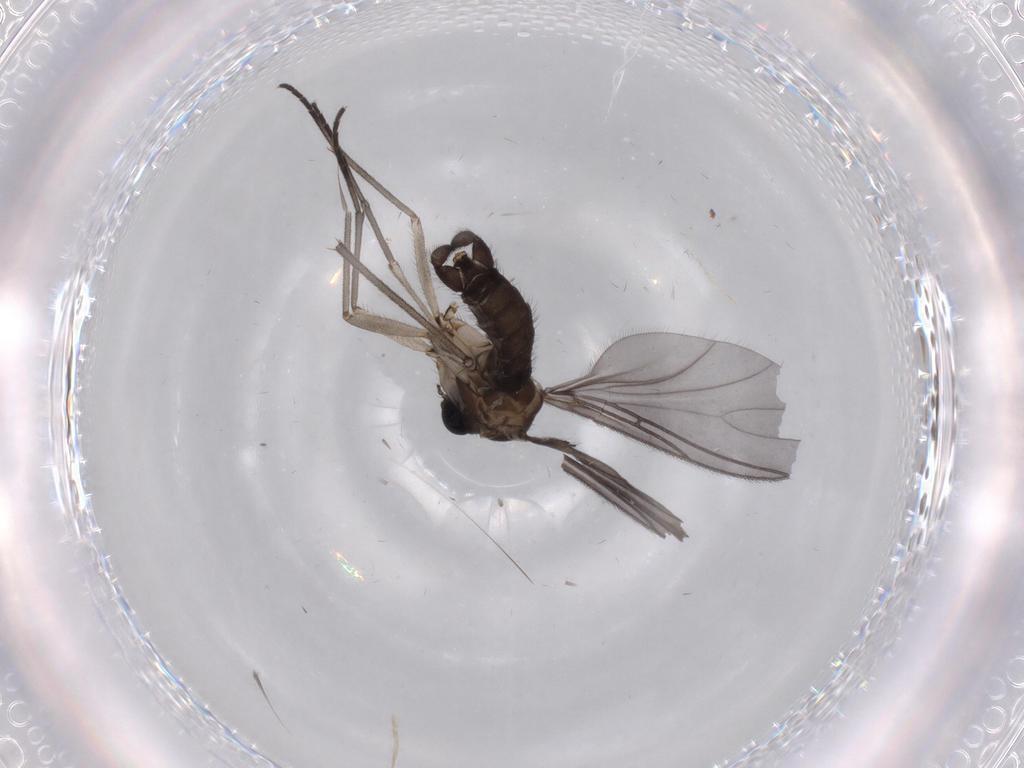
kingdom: Animalia
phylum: Arthropoda
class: Insecta
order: Diptera
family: Sciaridae
